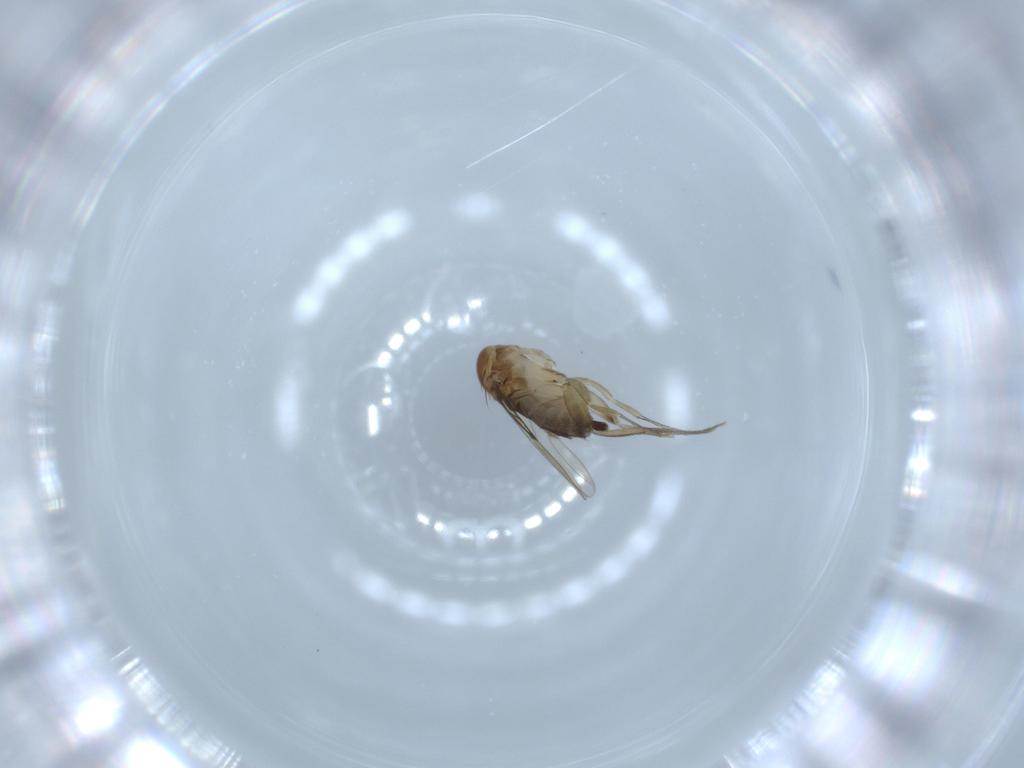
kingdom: Animalia
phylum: Arthropoda
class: Insecta
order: Diptera
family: Phoridae
